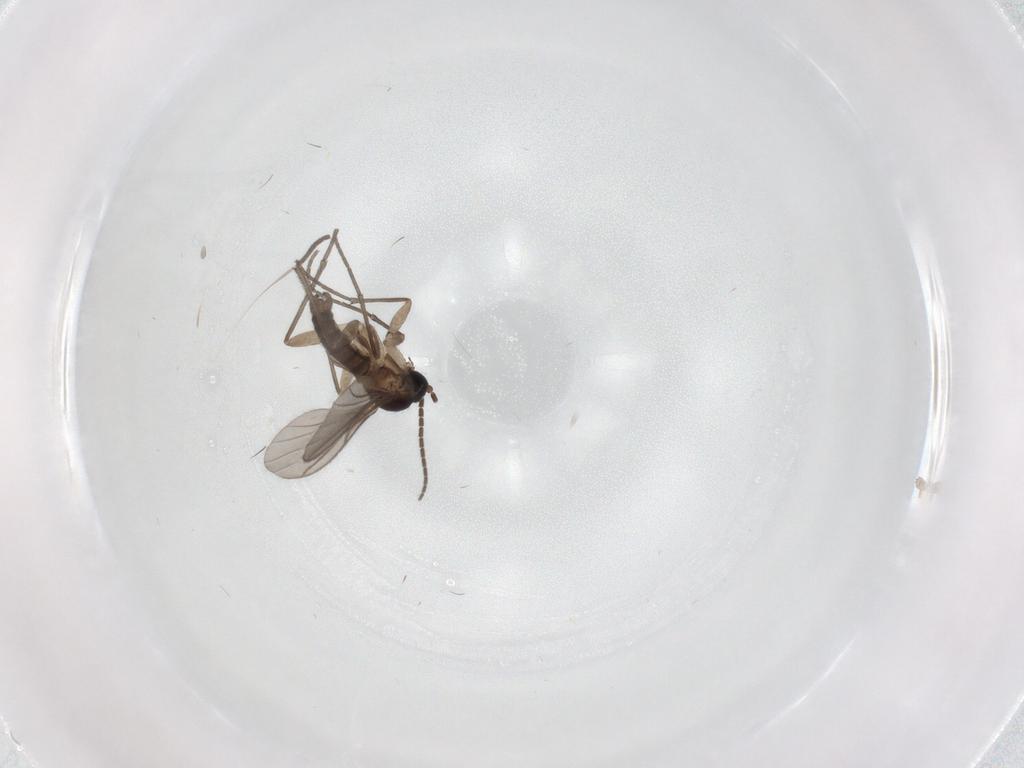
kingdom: Animalia
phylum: Arthropoda
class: Insecta
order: Diptera
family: Sciaridae
